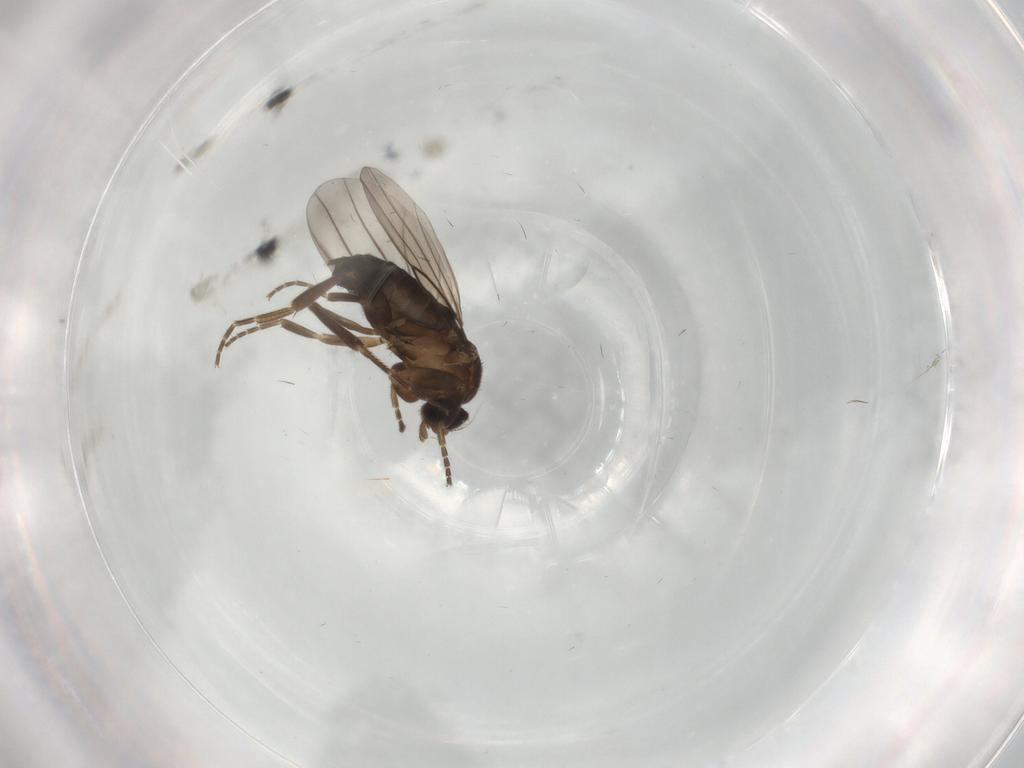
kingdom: Animalia
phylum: Arthropoda
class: Insecta
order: Diptera
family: Phoridae
